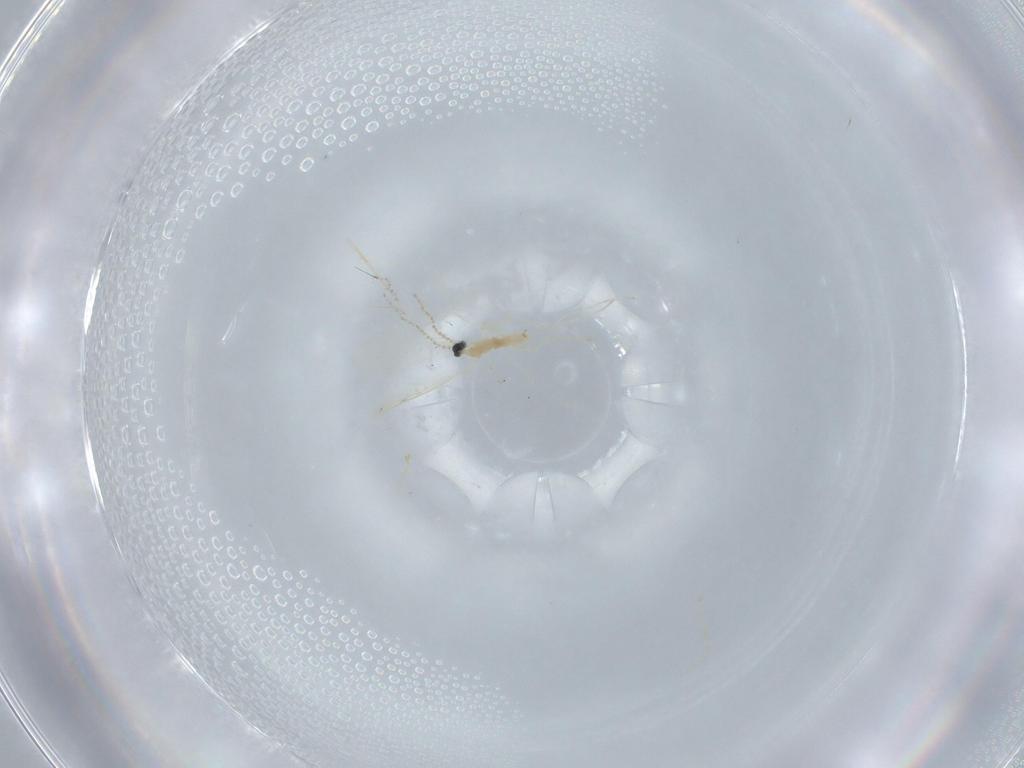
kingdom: Animalia
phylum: Arthropoda
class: Insecta
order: Diptera
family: Cecidomyiidae
